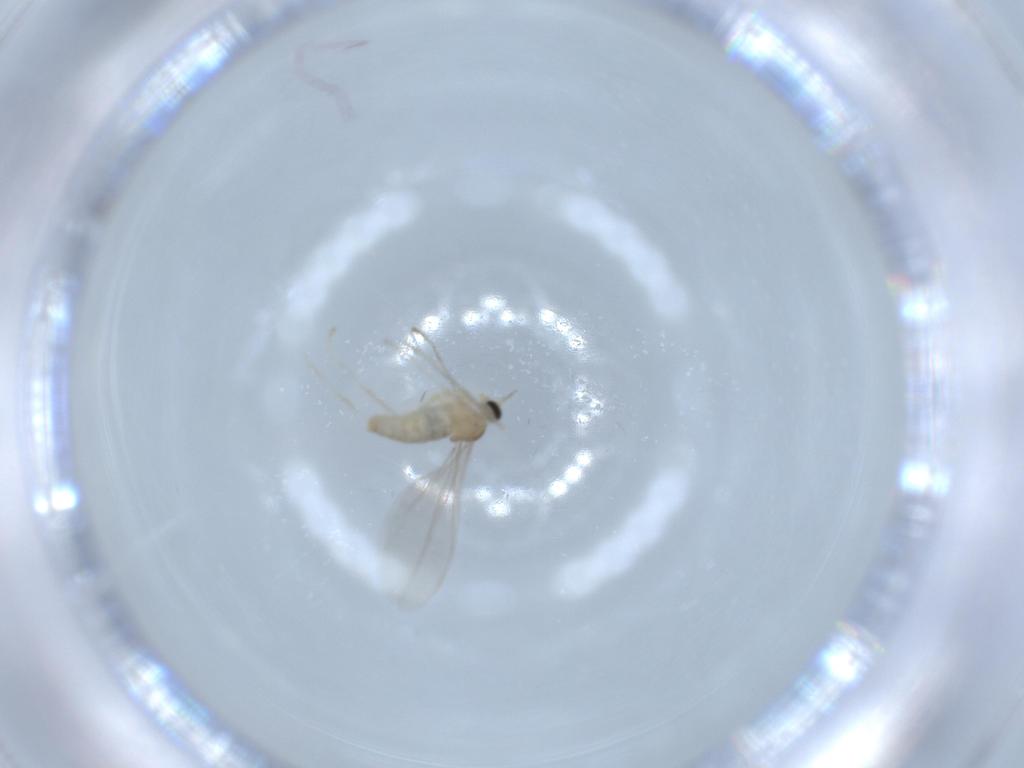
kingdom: Animalia
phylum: Arthropoda
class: Insecta
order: Diptera
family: Cecidomyiidae
